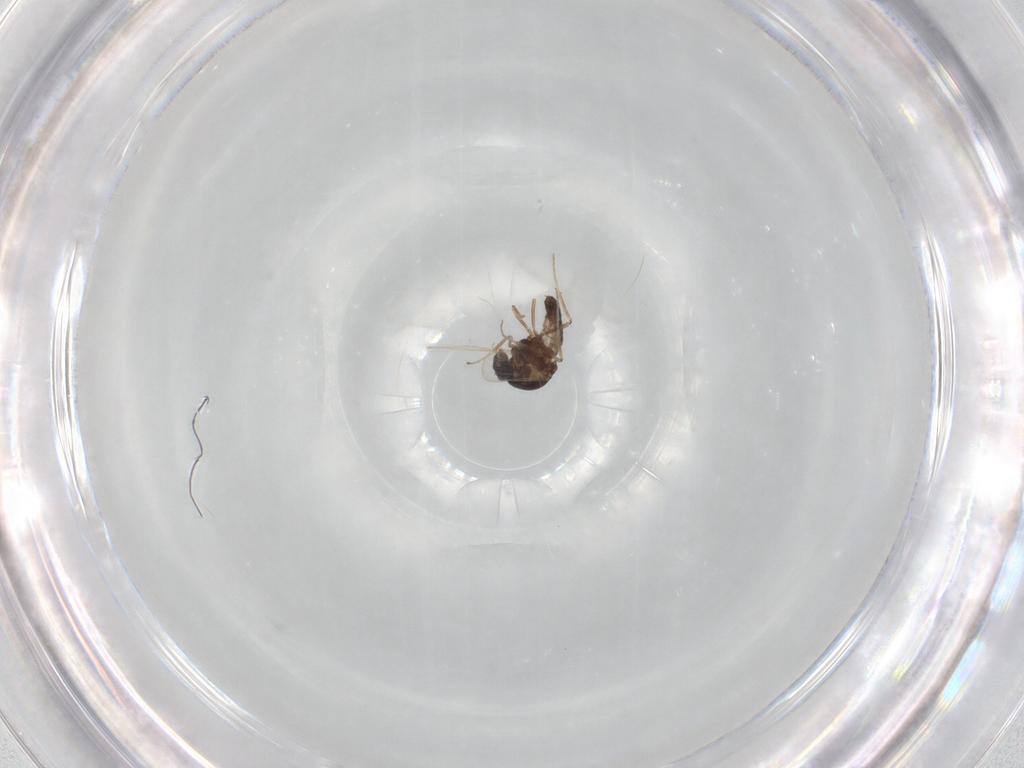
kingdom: Animalia
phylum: Arthropoda
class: Insecta
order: Diptera
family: Ceratopogonidae
